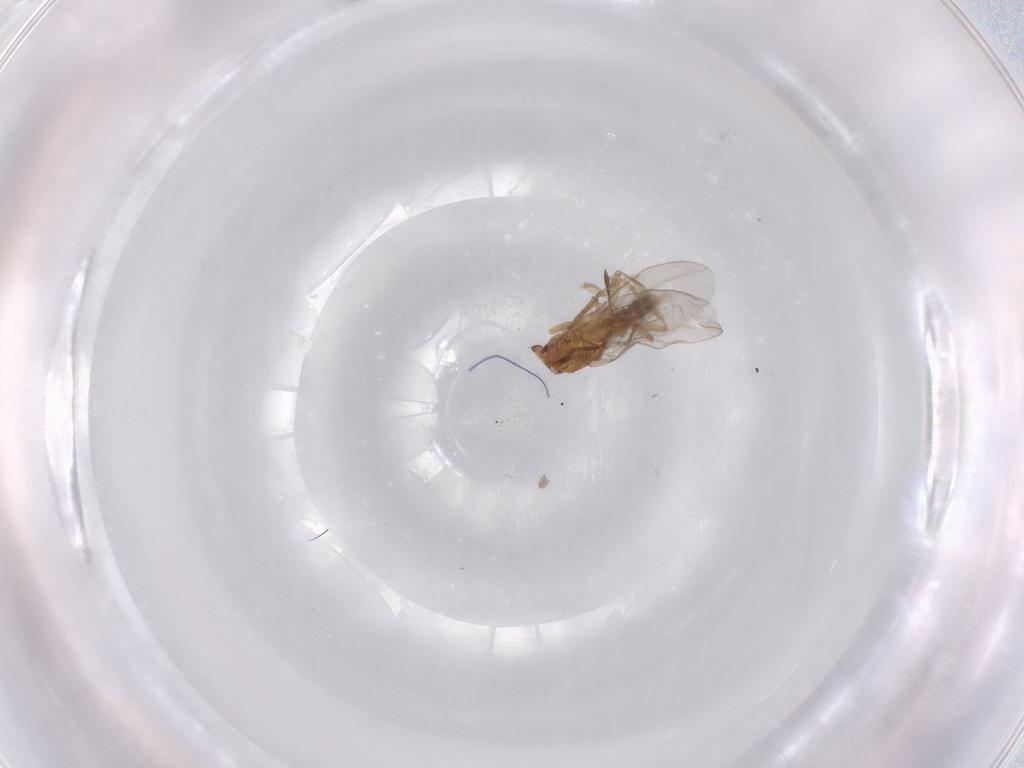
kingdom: Animalia
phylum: Arthropoda
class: Insecta
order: Diptera
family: Sphaeroceridae
